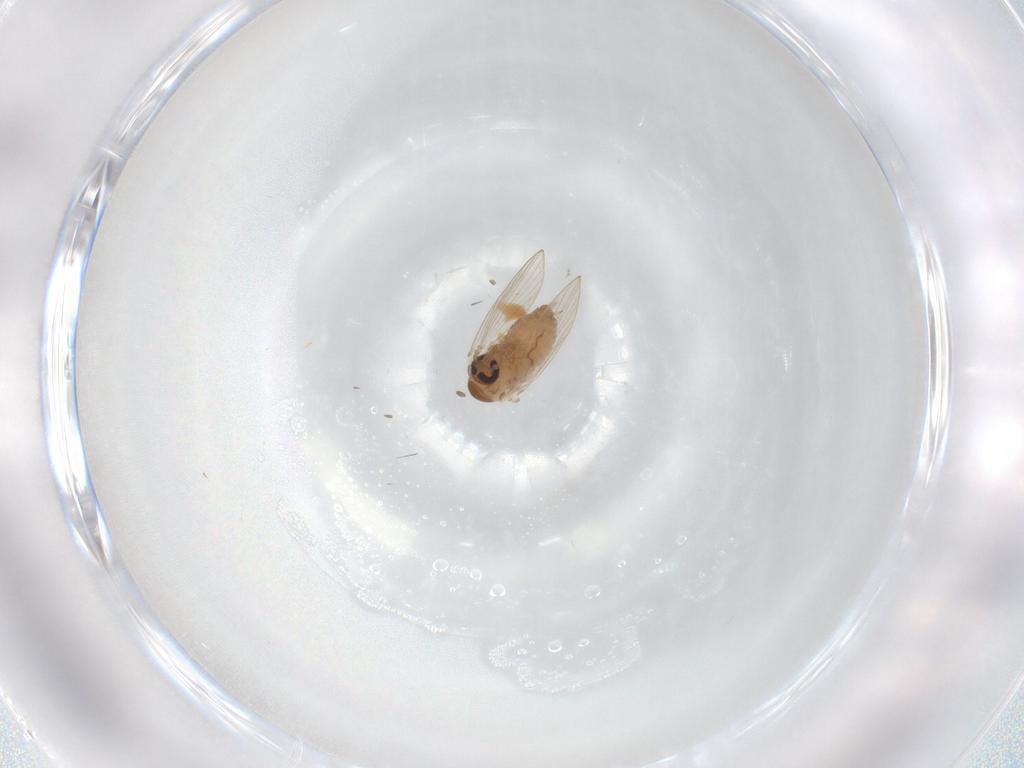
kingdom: Animalia
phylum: Arthropoda
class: Insecta
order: Diptera
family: Psychodidae
